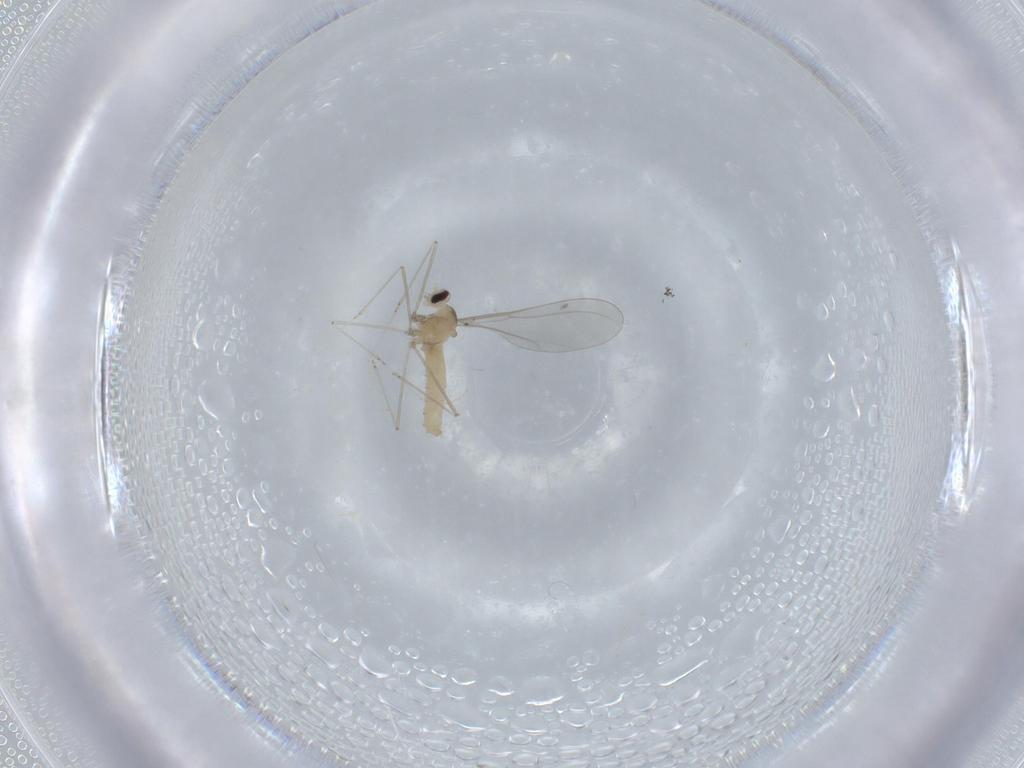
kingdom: Animalia
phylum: Arthropoda
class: Insecta
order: Diptera
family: Cecidomyiidae
